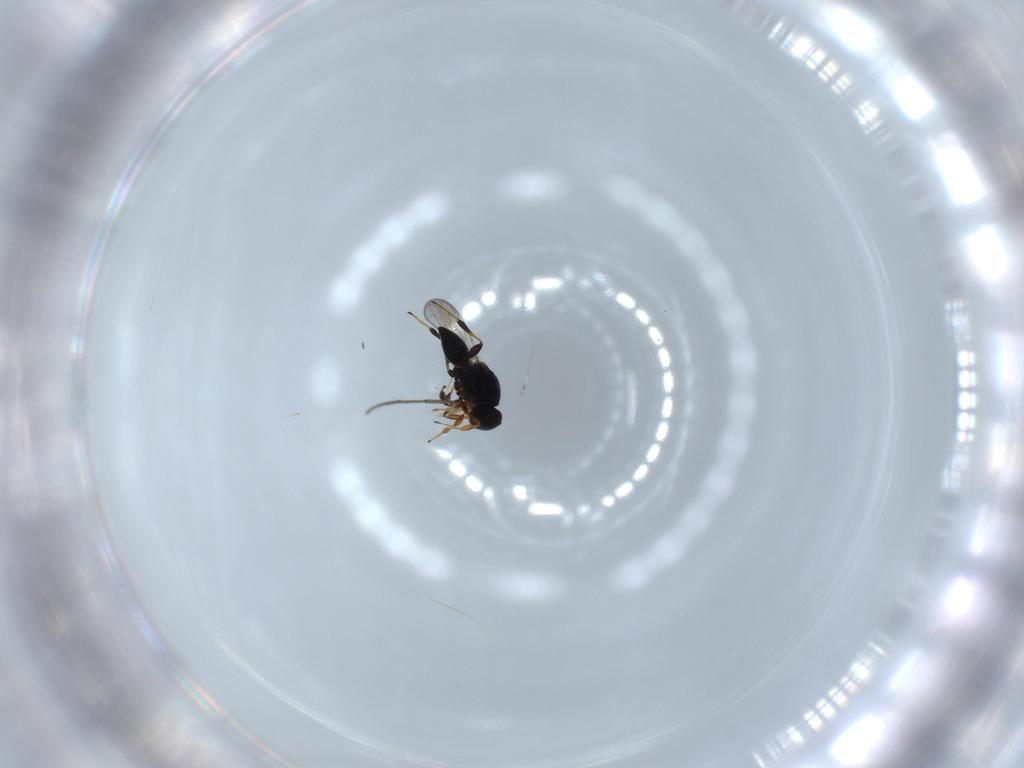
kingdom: Animalia
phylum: Arthropoda
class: Insecta
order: Hymenoptera
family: Platygastridae
